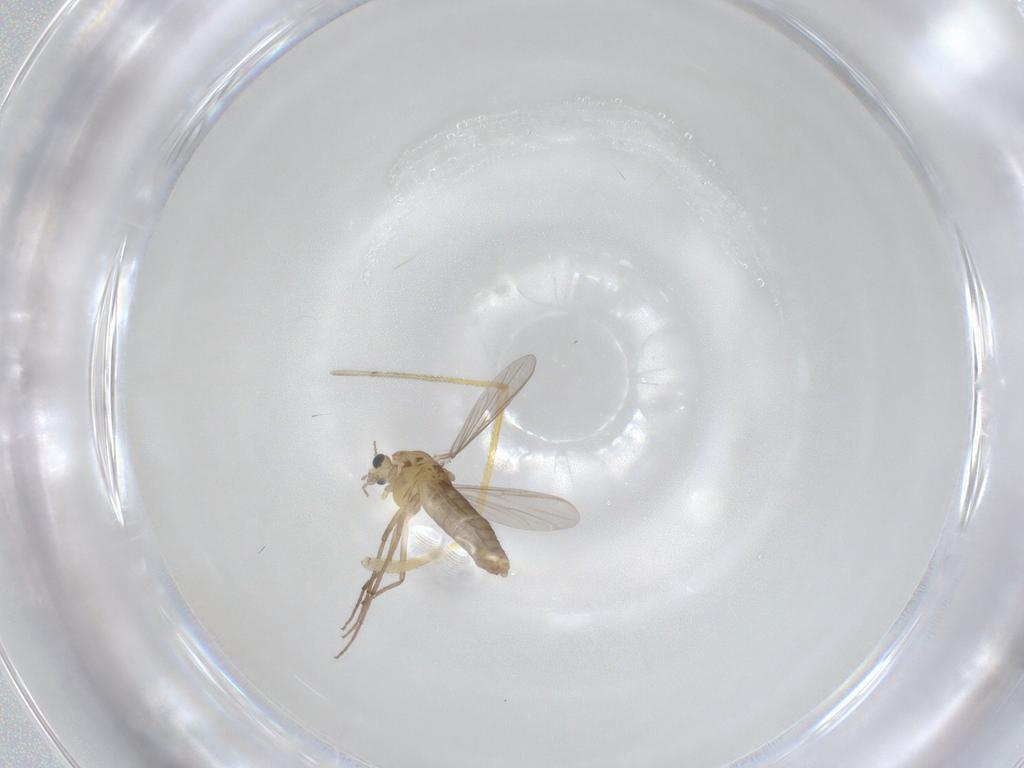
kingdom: Animalia
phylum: Arthropoda
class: Insecta
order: Diptera
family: Chironomidae
